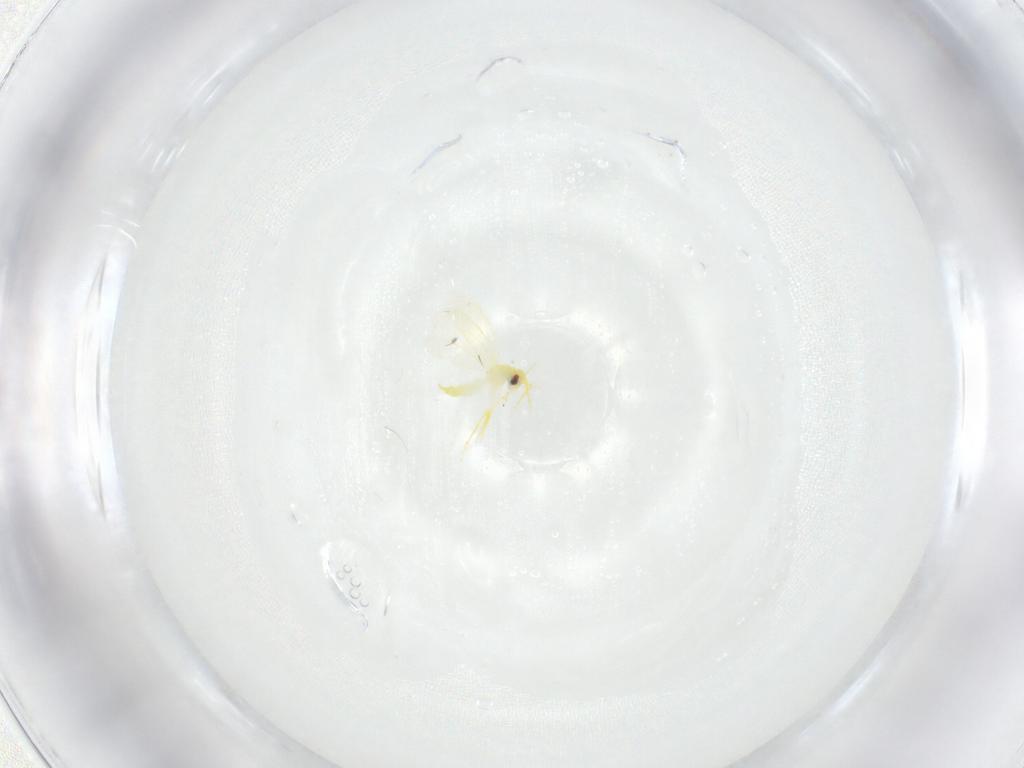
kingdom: Animalia
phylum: Arthropoda
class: Insecta
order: Hemiptera
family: Aleyrodidae
